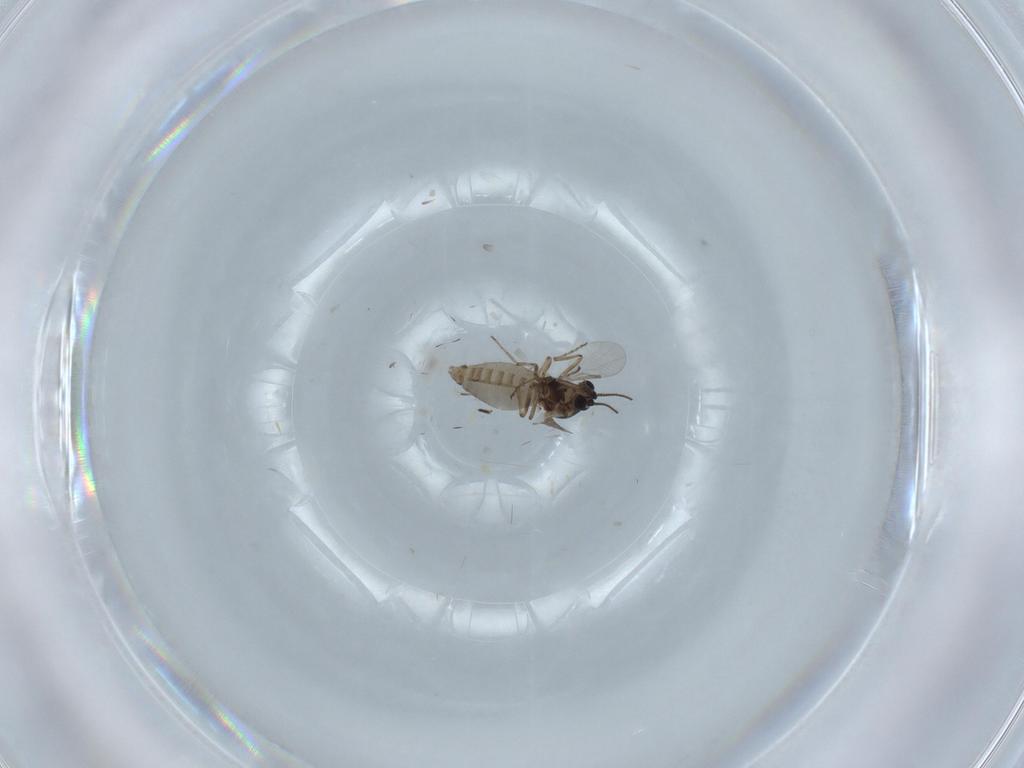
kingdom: Animalia
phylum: Arthropoda
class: Insecta
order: Diptera
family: Ceratopogonidae
